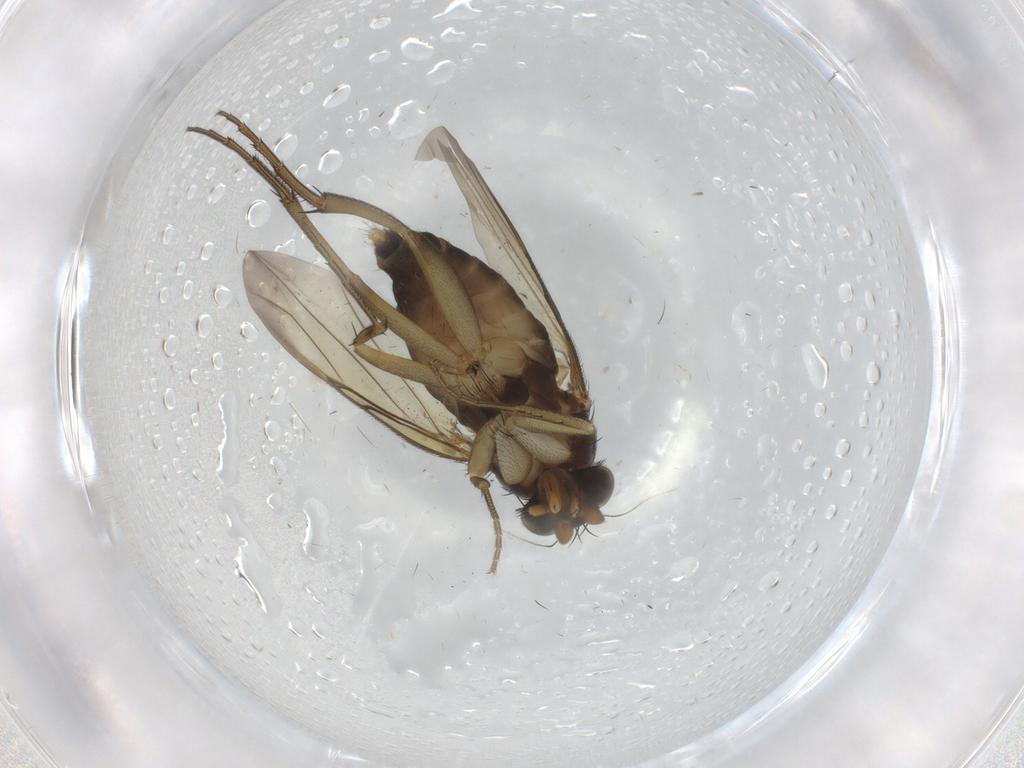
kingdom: Animalia
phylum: Arthropoda
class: Insecta
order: Diptera
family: Phoridae
